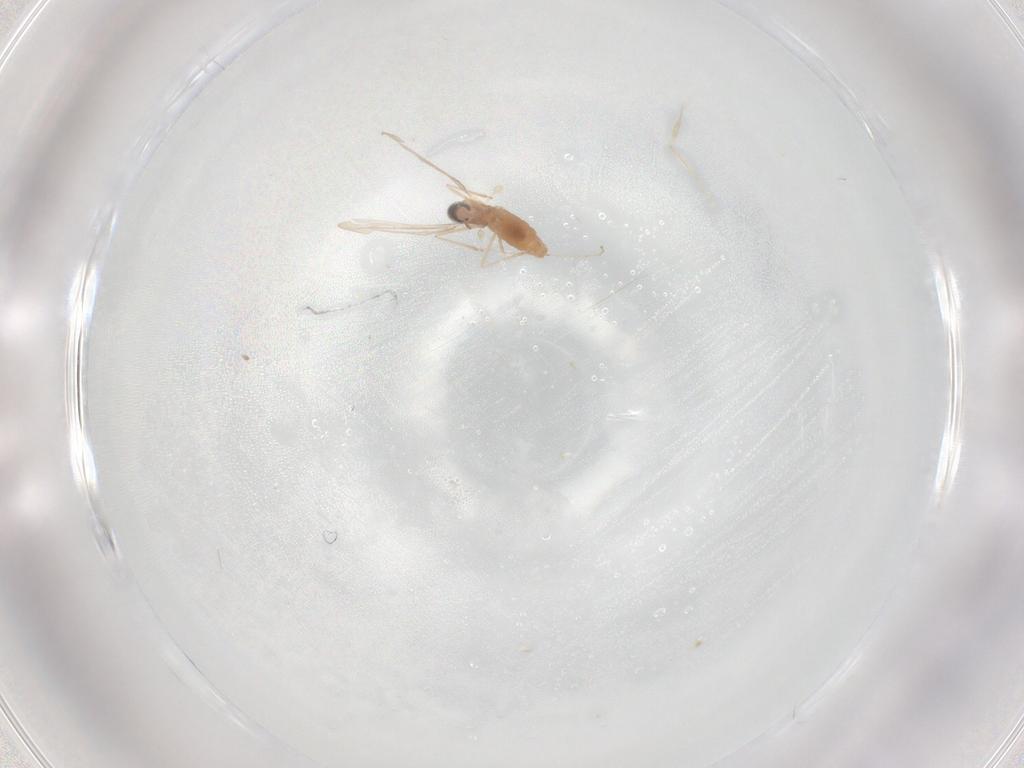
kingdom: Animalia
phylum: Arthropoda
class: Insecta
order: Diptera
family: Cecidomyiidae
